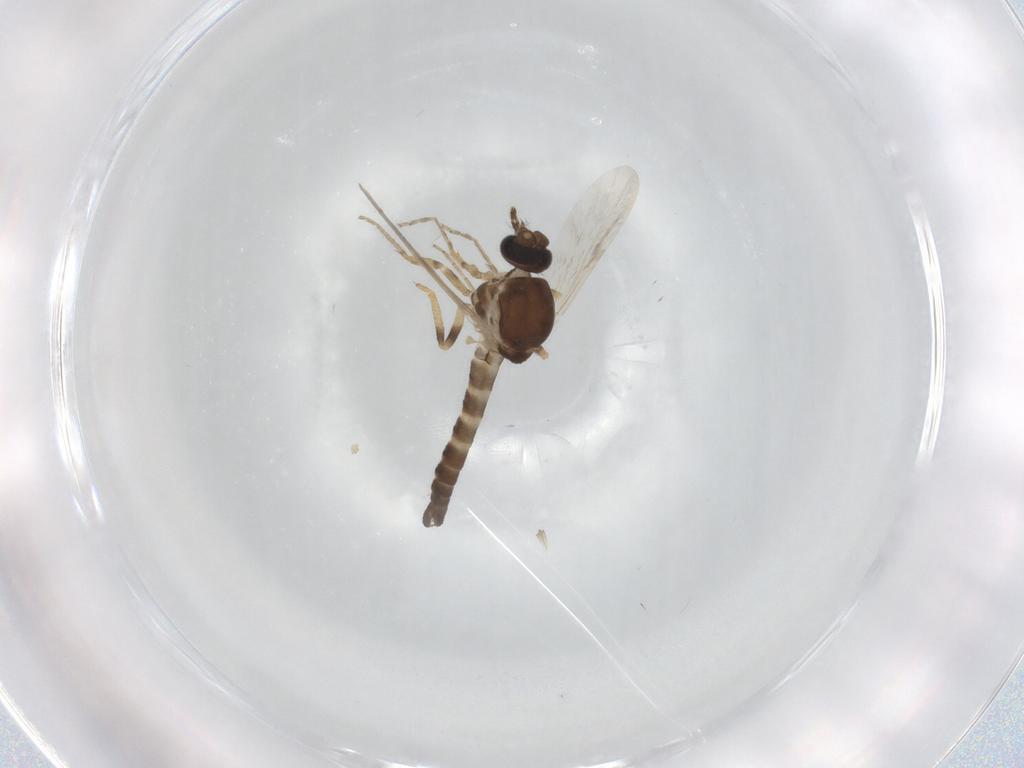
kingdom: Animalia
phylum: Arthropoda
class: Insecta
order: Diptera
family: Ceratopogonidae
